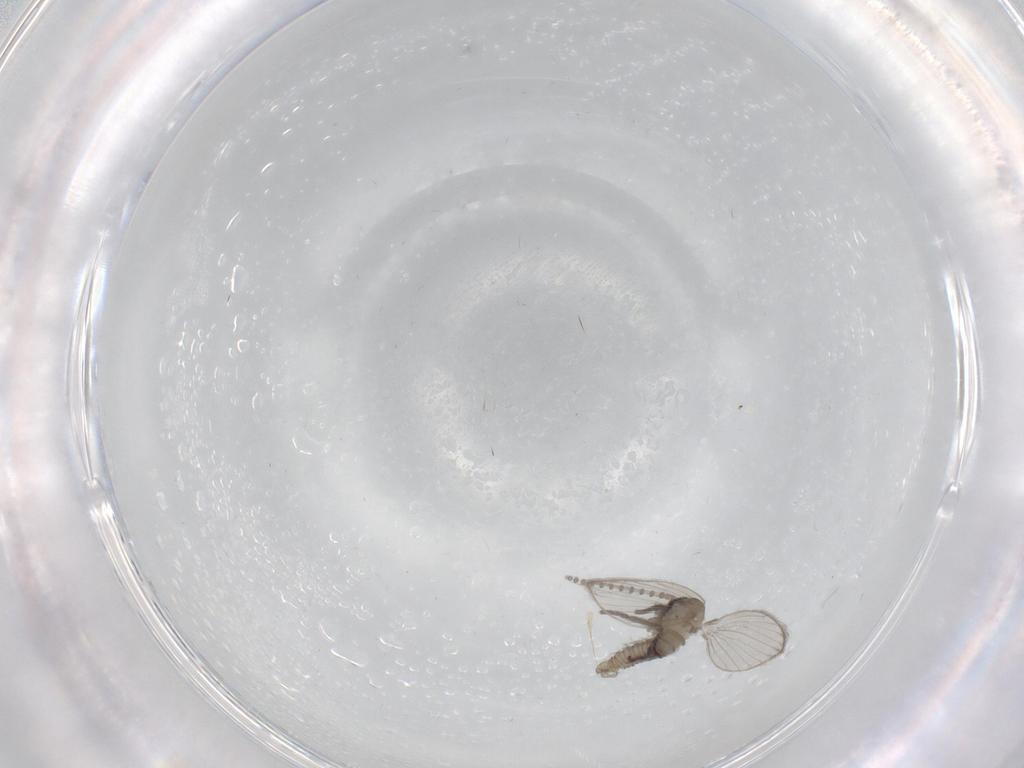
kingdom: Animalia
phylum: Arthropoda
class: Insecta
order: Diptera
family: Psychodidae
